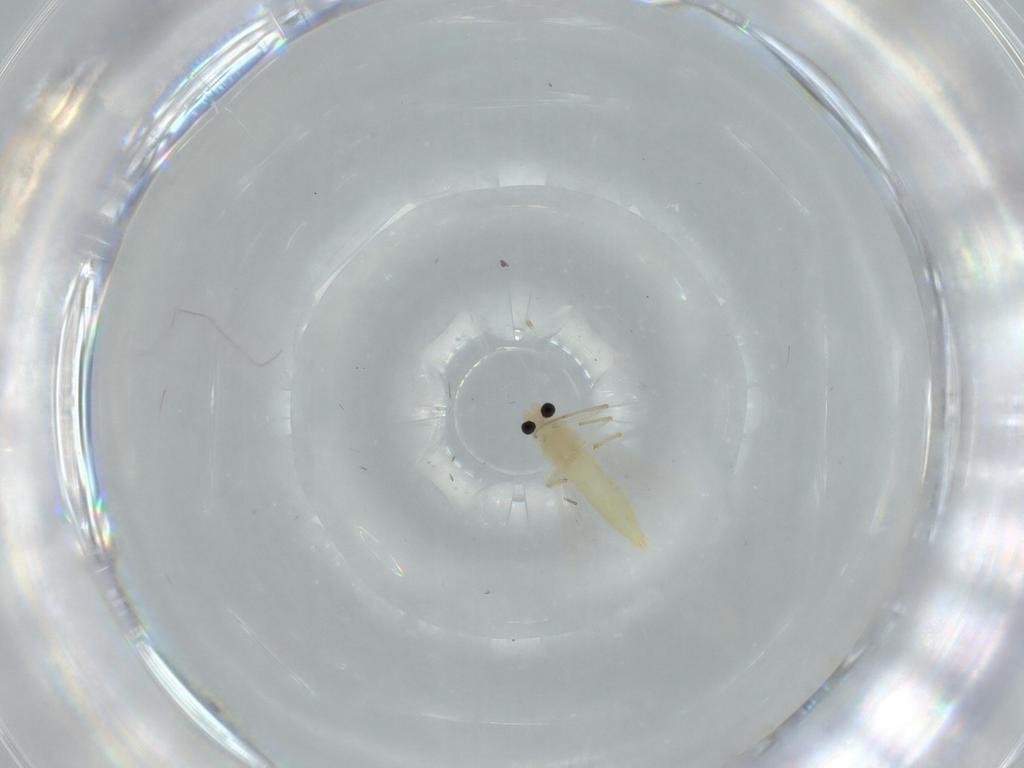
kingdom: Animalia
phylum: Arthropoda
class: Insecta
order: Diptera
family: Chironomidae
